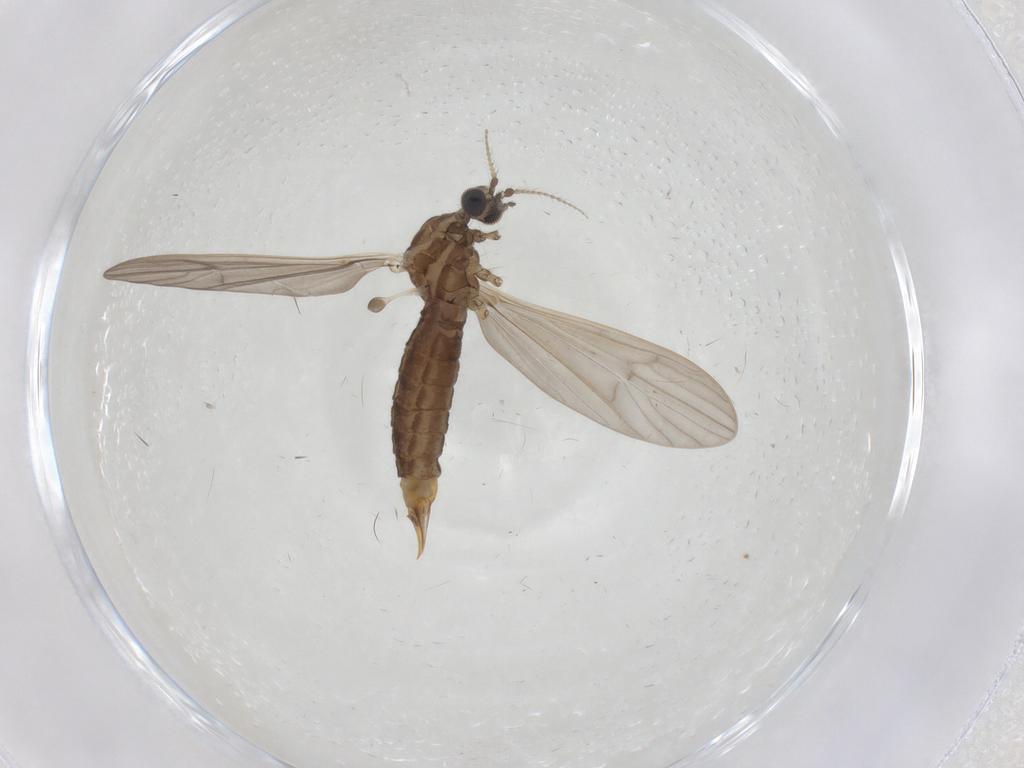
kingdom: Animalia
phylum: Arthropoda
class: Insecta
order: Diptera
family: Limoniidae
